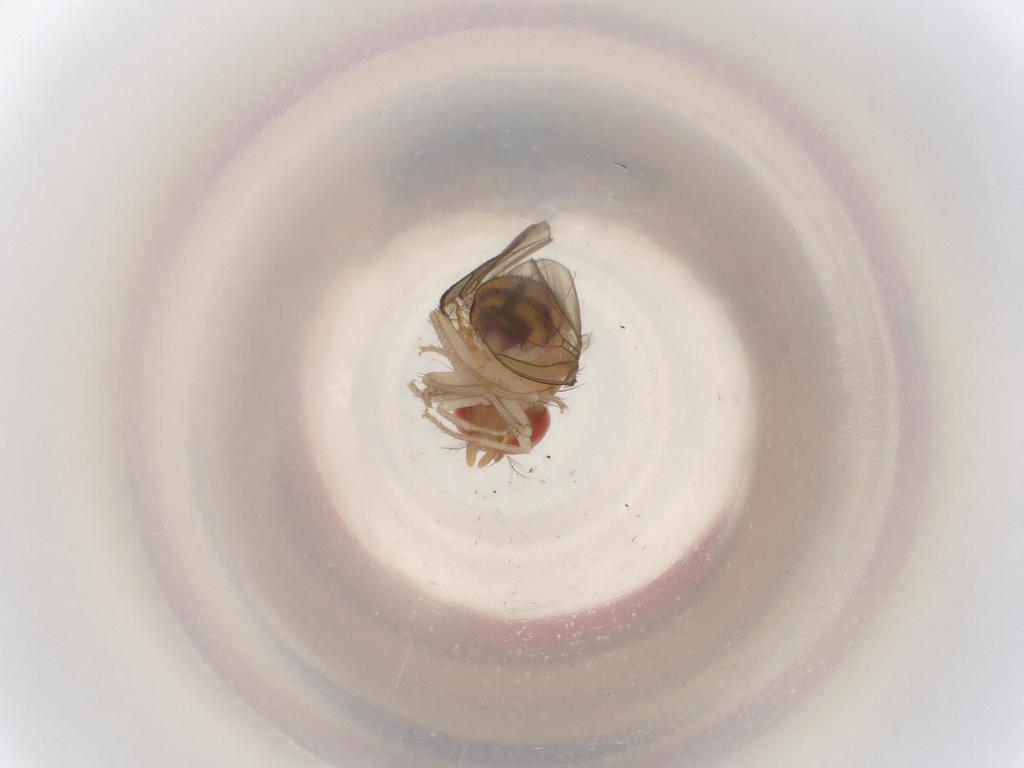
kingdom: Animalia
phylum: Arthropoda
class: Insecta
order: Diptera
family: Drosophilidae
